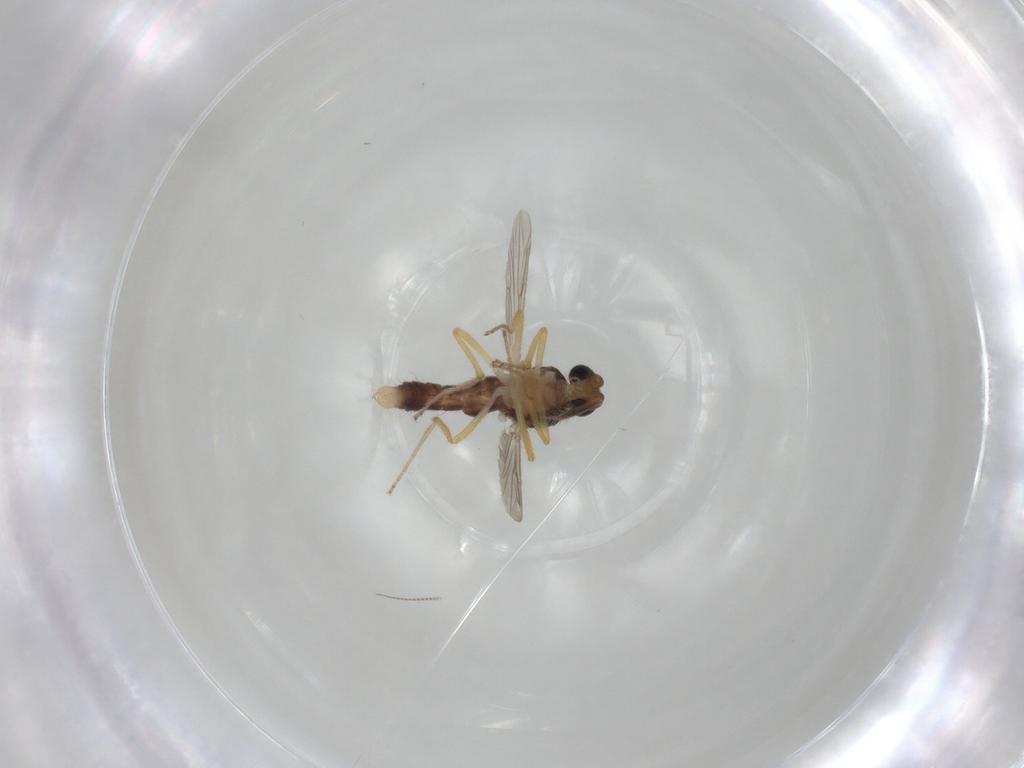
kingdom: Animalia
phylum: Arthropoda
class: Insecta
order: Diptera
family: Ceratopogonidae
